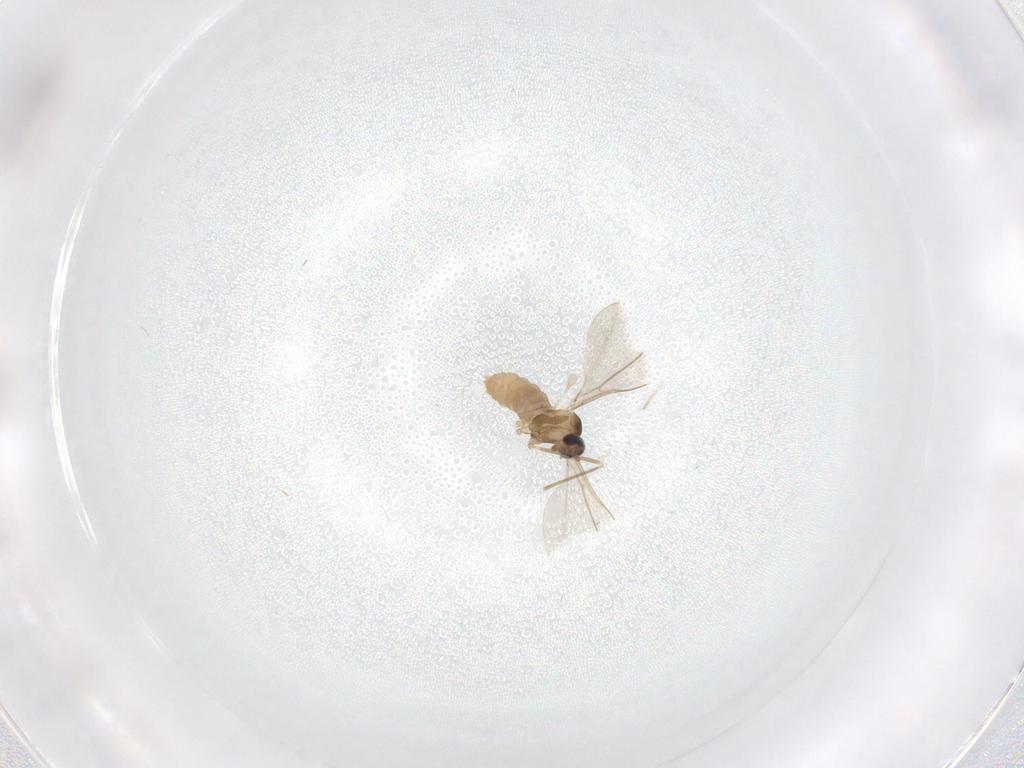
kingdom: Animalia
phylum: Arthropoda
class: Insecta
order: Diptera
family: Cecidomyiidae
